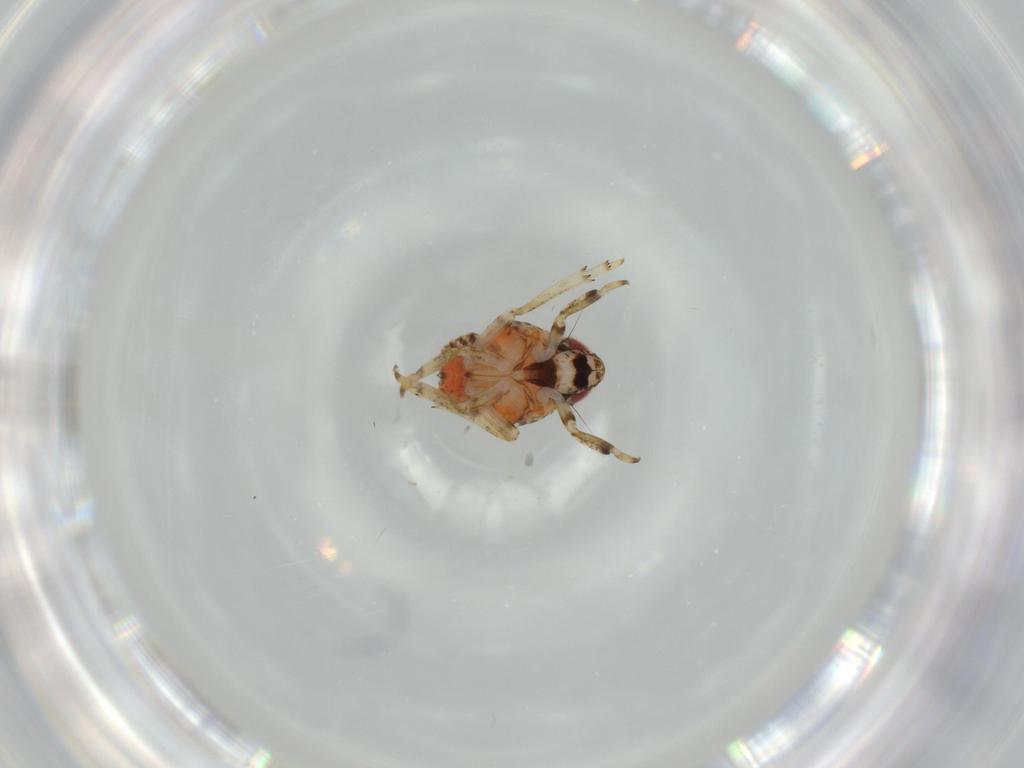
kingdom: Animalia
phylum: Arthropoda
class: Insecta
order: Hemiptera
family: Issidae
